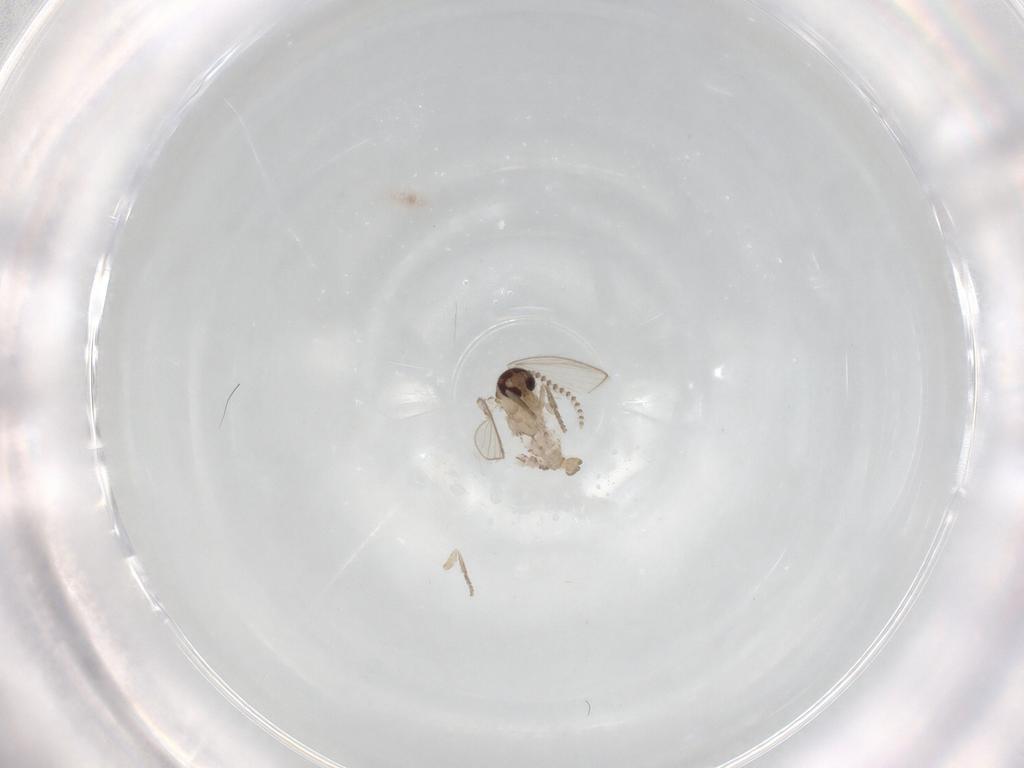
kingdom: Animalia
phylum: Arthropoda
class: Insecta
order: Diptera
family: Psychodidae
